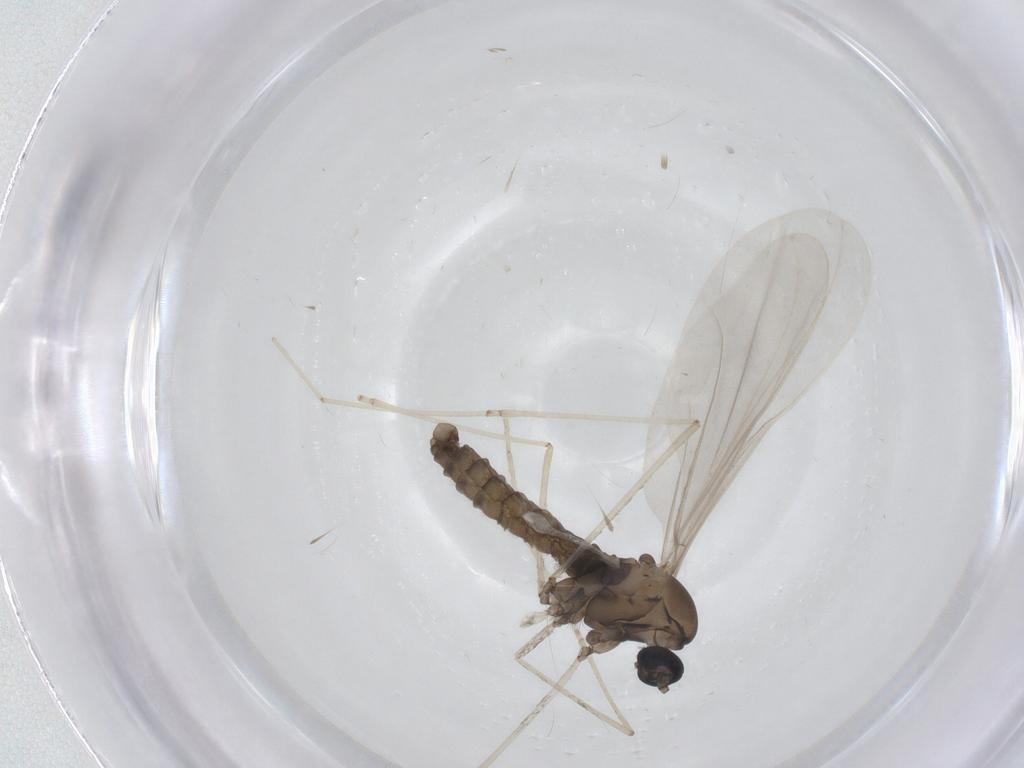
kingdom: Animalia
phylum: Arthropoda
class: Insecta
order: Diptera
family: Cecidomyiidae
